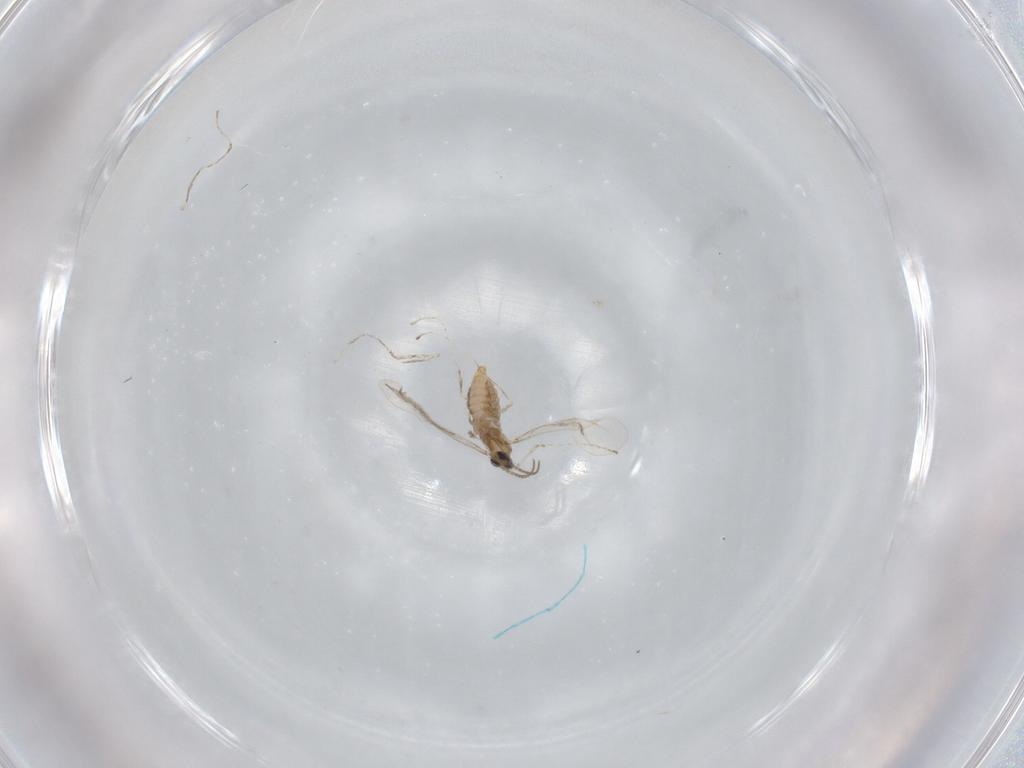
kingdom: Animalia
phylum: Arthropoda
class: Insecta
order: Diptera
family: Cecidomyiidae
